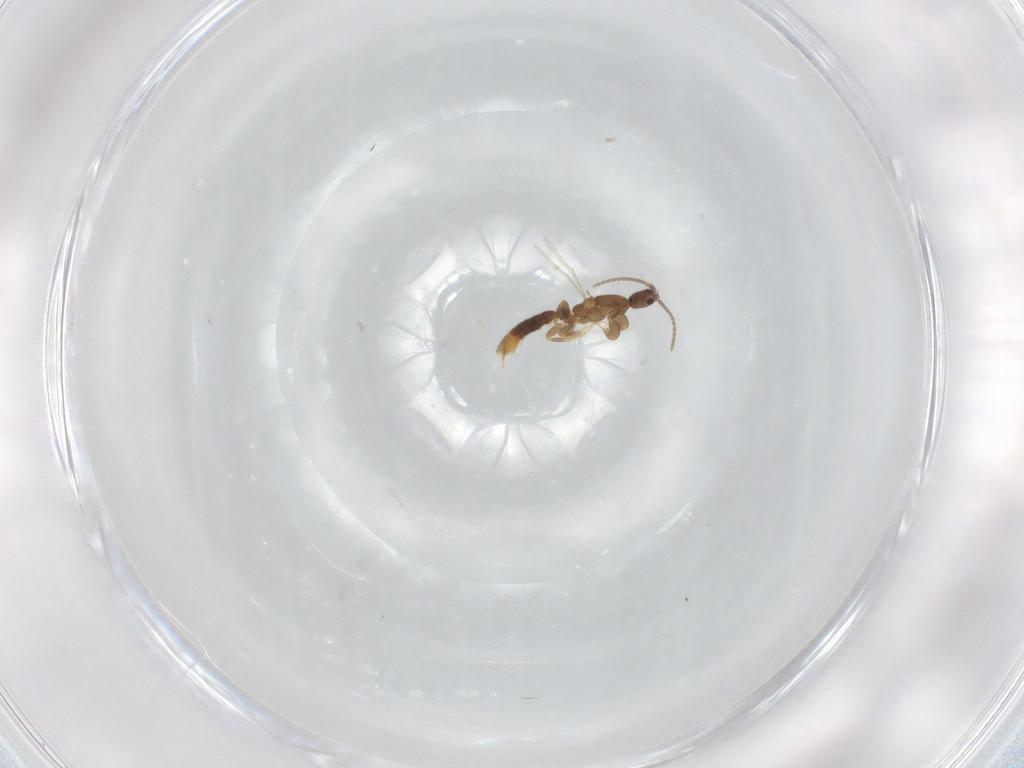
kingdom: Animalia
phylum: Arthropoda
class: Insecta
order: Hymenoptera
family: Formicidae
